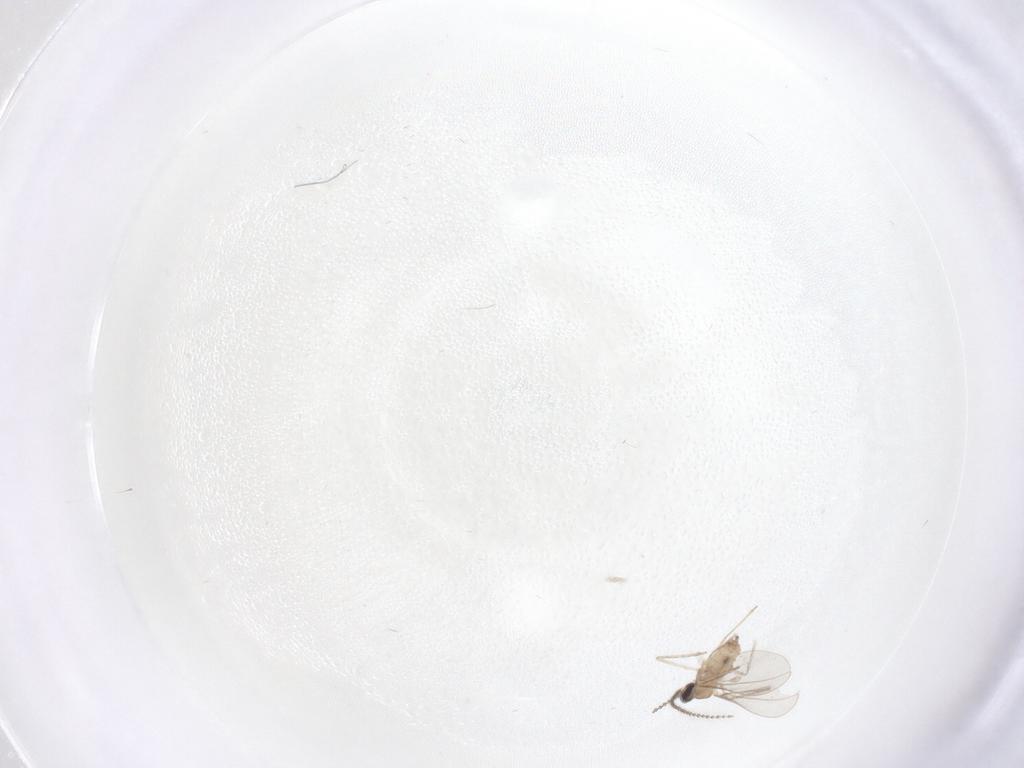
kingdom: Animalia
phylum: Arthropoda
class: Insecta
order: Diptera
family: Cecidomyiidae
